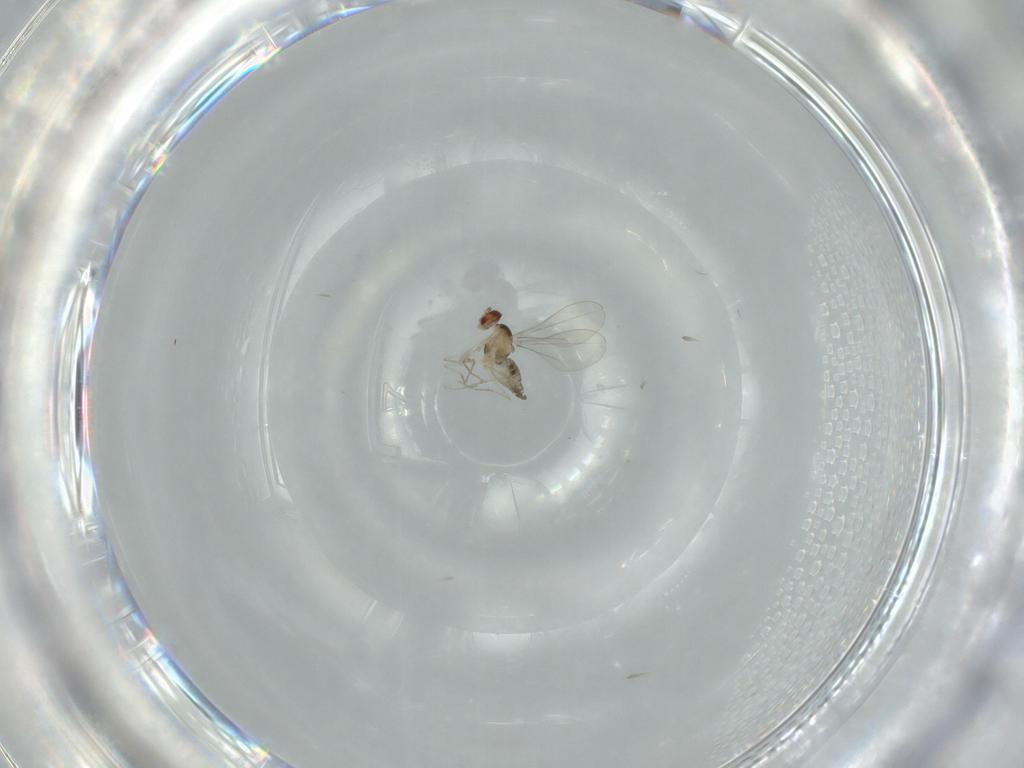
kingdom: Animalia
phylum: Arthropoda
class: Insecta
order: Diptera
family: Cecidomyiidae
